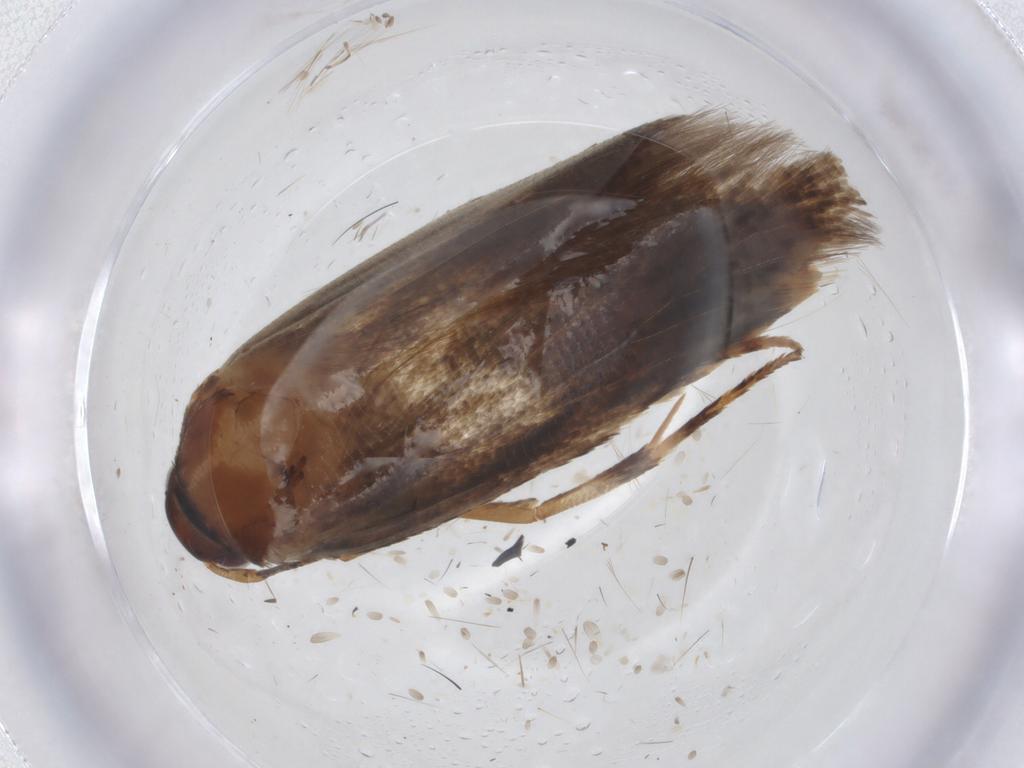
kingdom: Animalia
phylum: Arthropoda
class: Insecta
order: Lepidoptera
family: Cosmopterigidae
